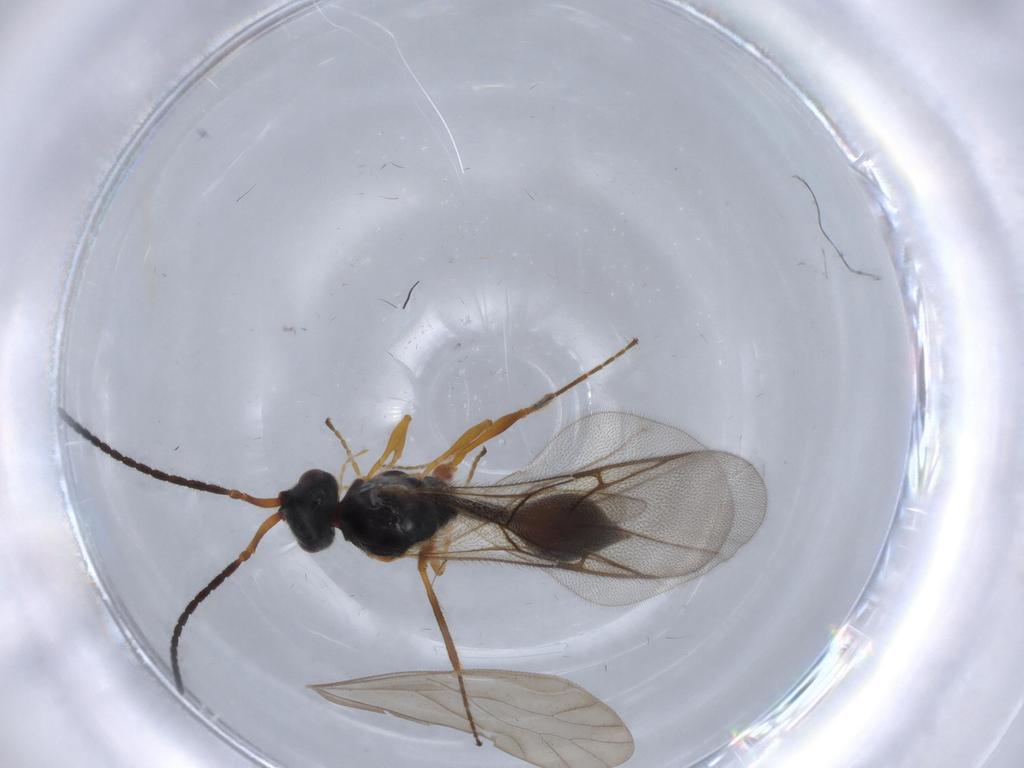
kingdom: Animalia
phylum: Arthropoda
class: Insecta
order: Hymenoptera
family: Diapriidae
